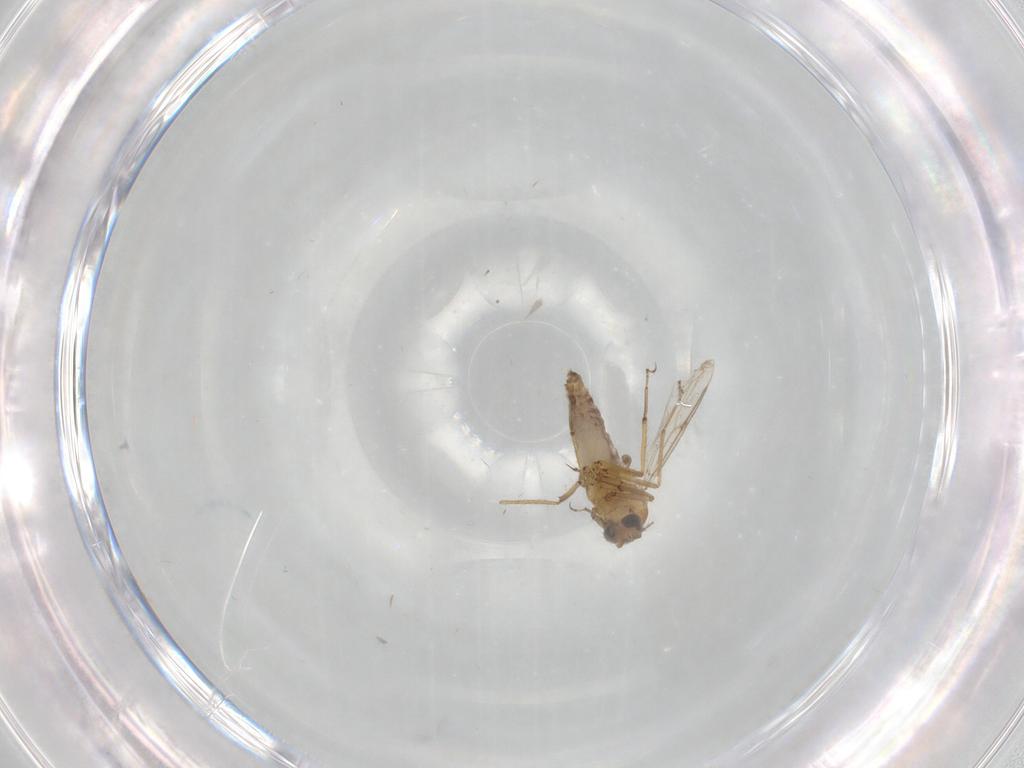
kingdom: Animalia
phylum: Arthropoda
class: Insecta
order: Diptera
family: Ceratopogonidae
